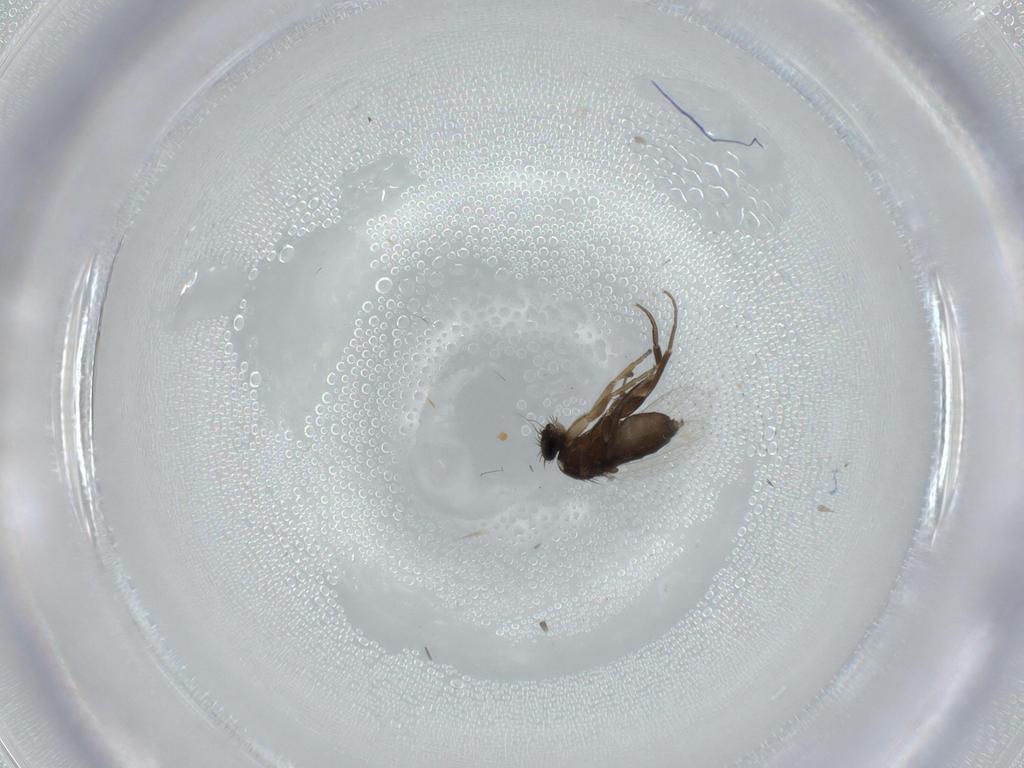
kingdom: Animalia
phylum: Arthropoda
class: Insecta
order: Diptera
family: Phoridae
